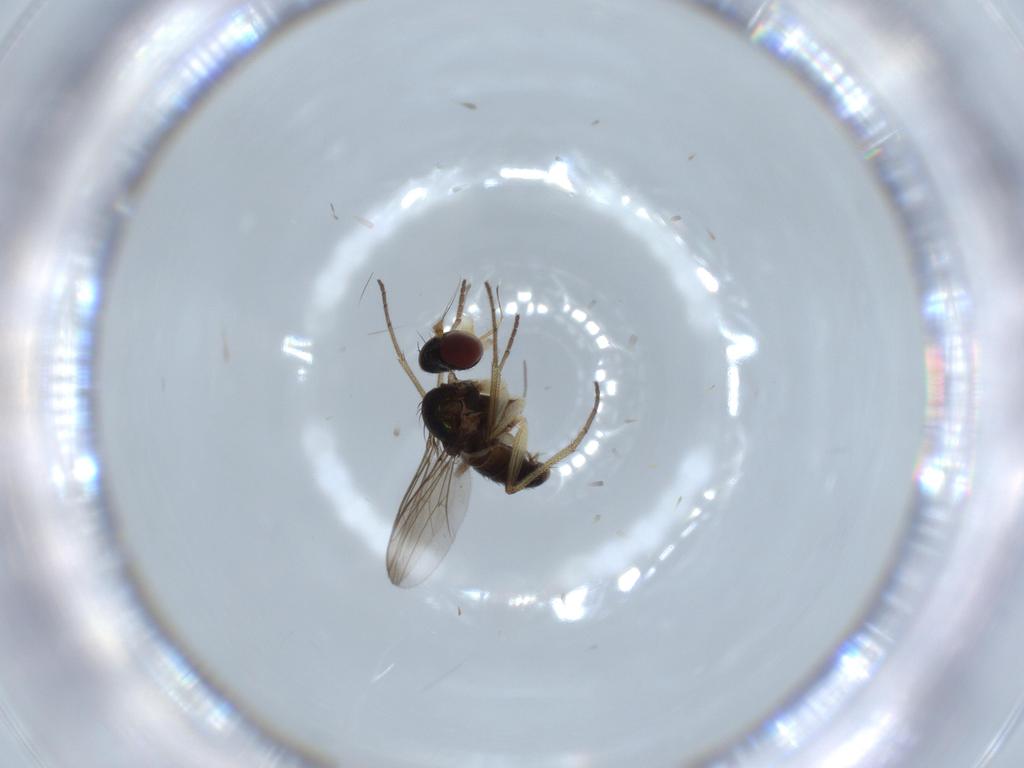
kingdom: Animalia
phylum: Arthropoda
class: Insecta
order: Diptera
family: Dolichopodidae
